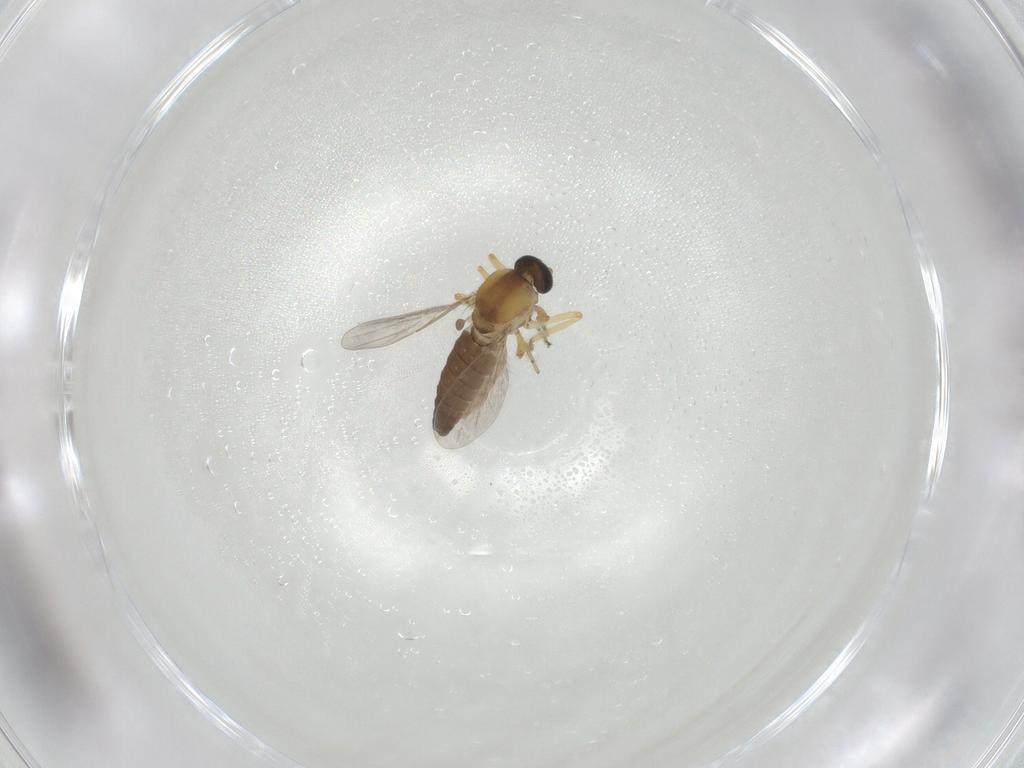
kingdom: Animalia
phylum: Arthropoda
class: Insecta
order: Diptera
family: Ceratopogonidae
